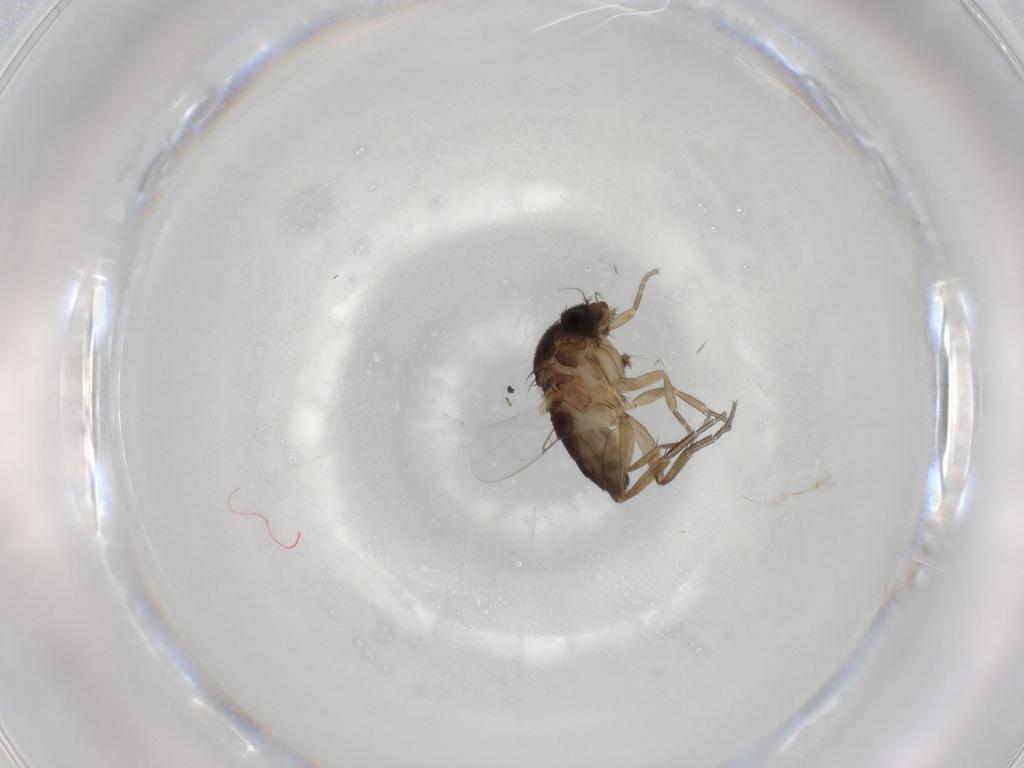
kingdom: Animalia
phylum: Arthropoda
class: Insecta
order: Diptera
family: Phoridae
